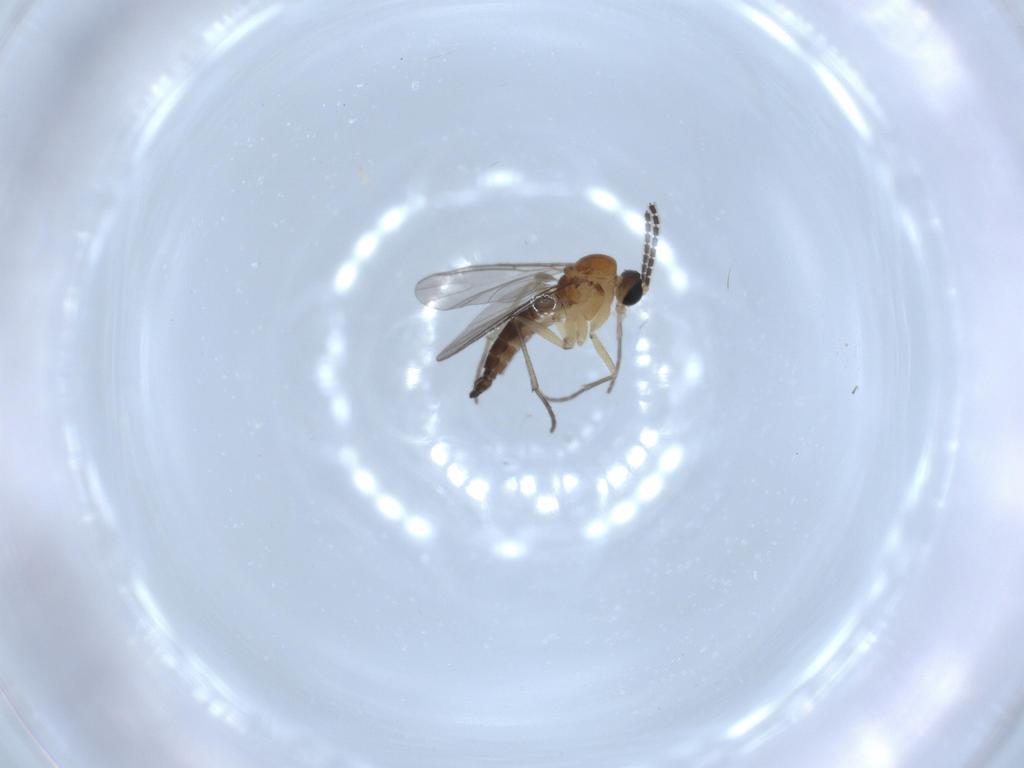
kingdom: Animalia
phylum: Arthropoda
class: Insecta
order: Diptera
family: Sciaridae
